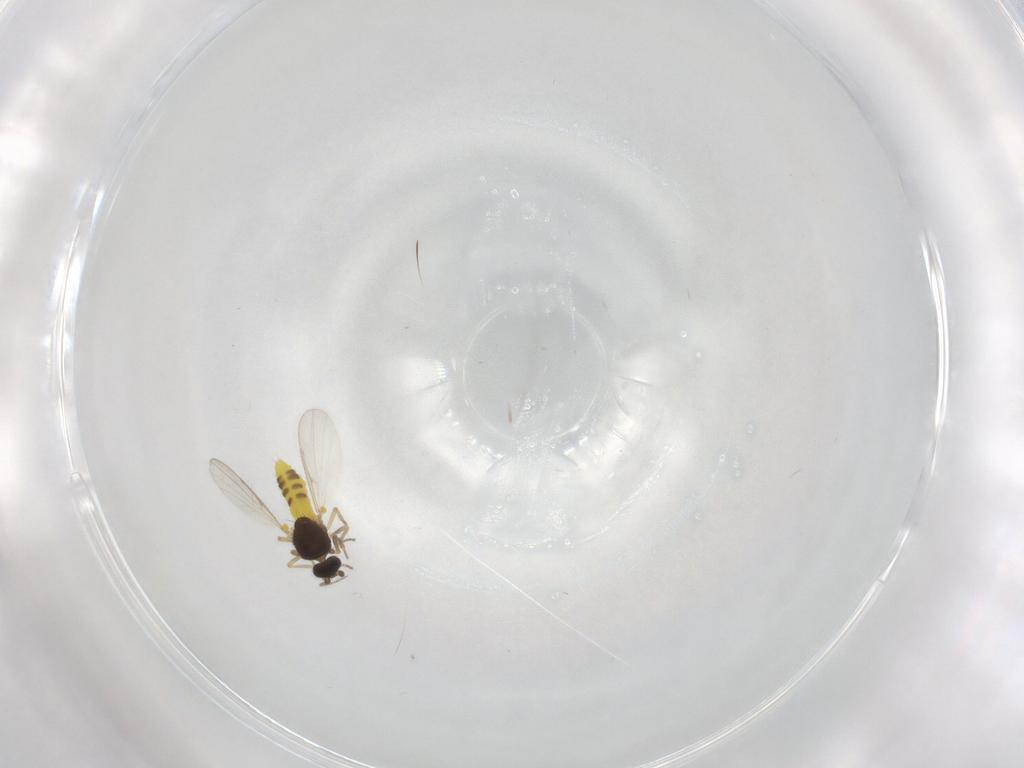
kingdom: Animalia
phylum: Arthropoda
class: Insecta
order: Diptera
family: Ceratopogonidae
